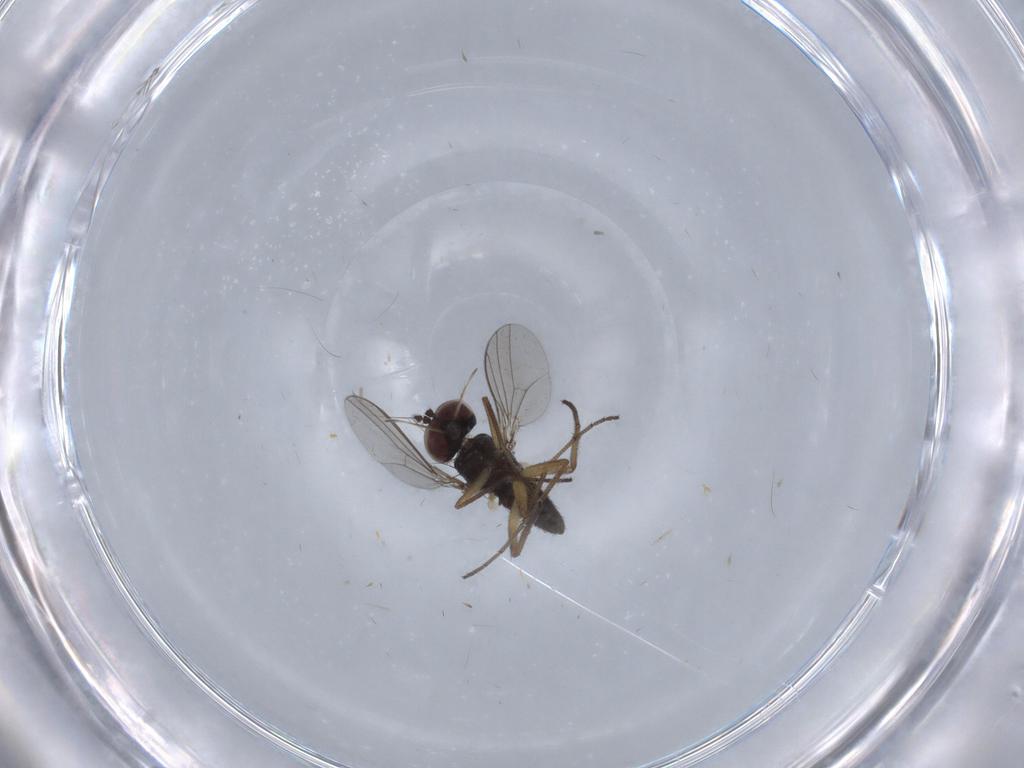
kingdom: Animalia
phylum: Arthropoda
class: Insecta
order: Diptera
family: Dolichopodidae
